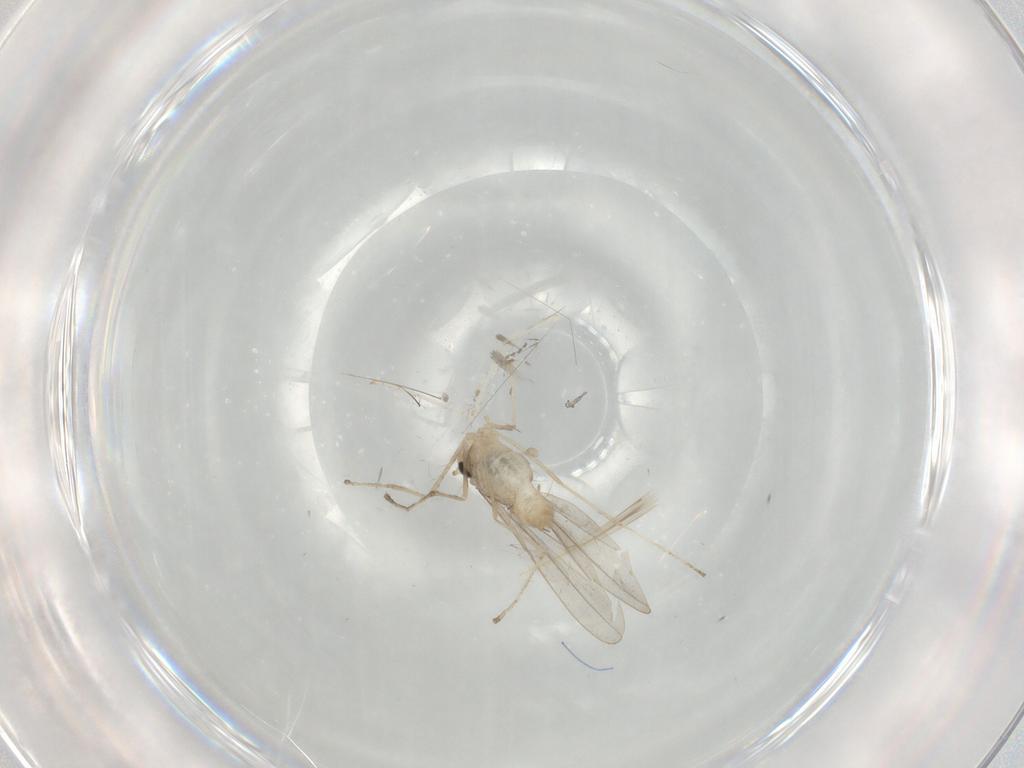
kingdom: Animalia
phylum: Arthropoda
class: Insecta
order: Diptera
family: Cecidomyiidae
